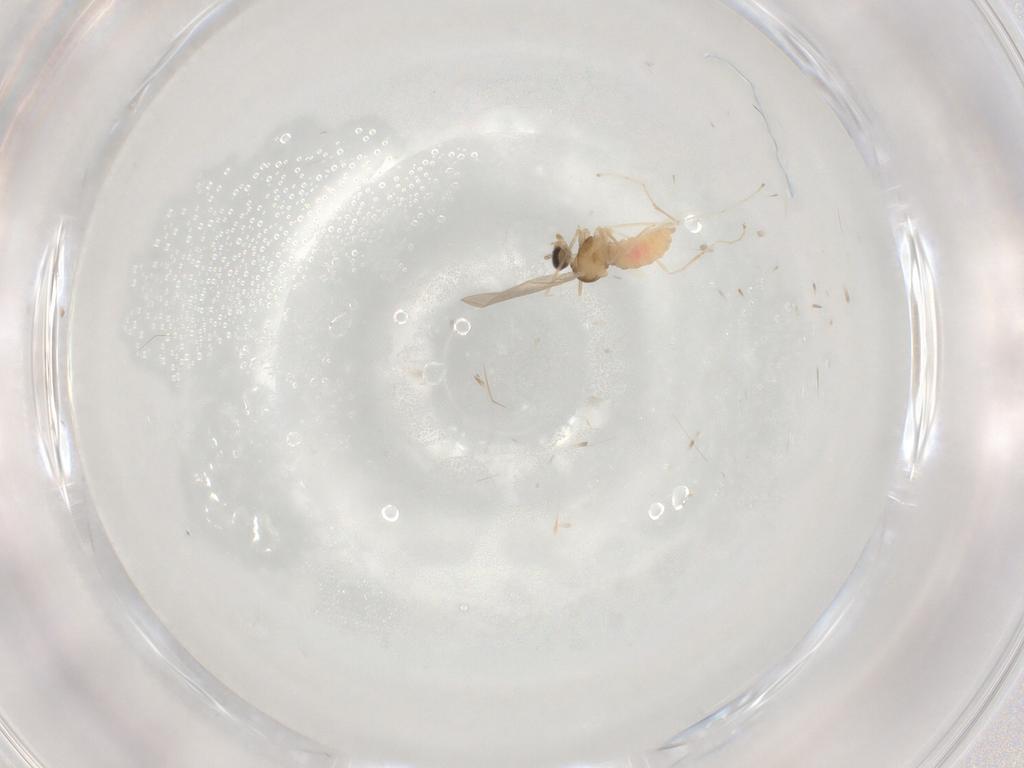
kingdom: Animalia
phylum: Arthropoda
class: Insecta
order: Diptera
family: Cecidomyiidae
